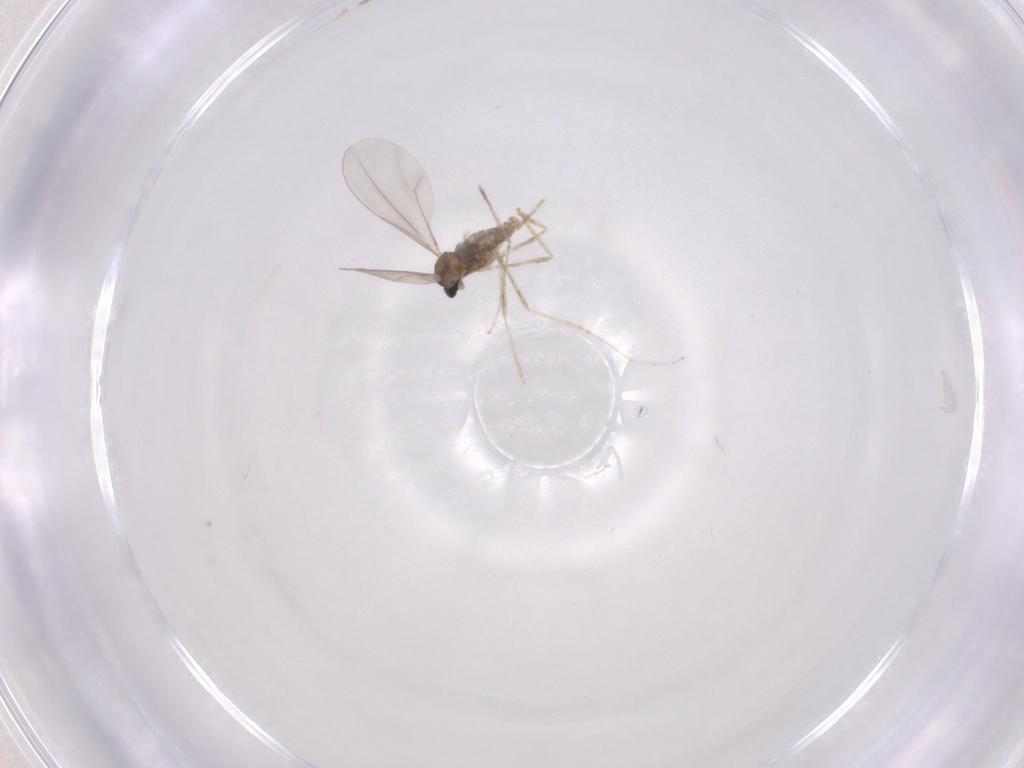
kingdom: Animalia
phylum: Arthropoda
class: Insecta
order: Diptera
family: Cecidomyiidae
